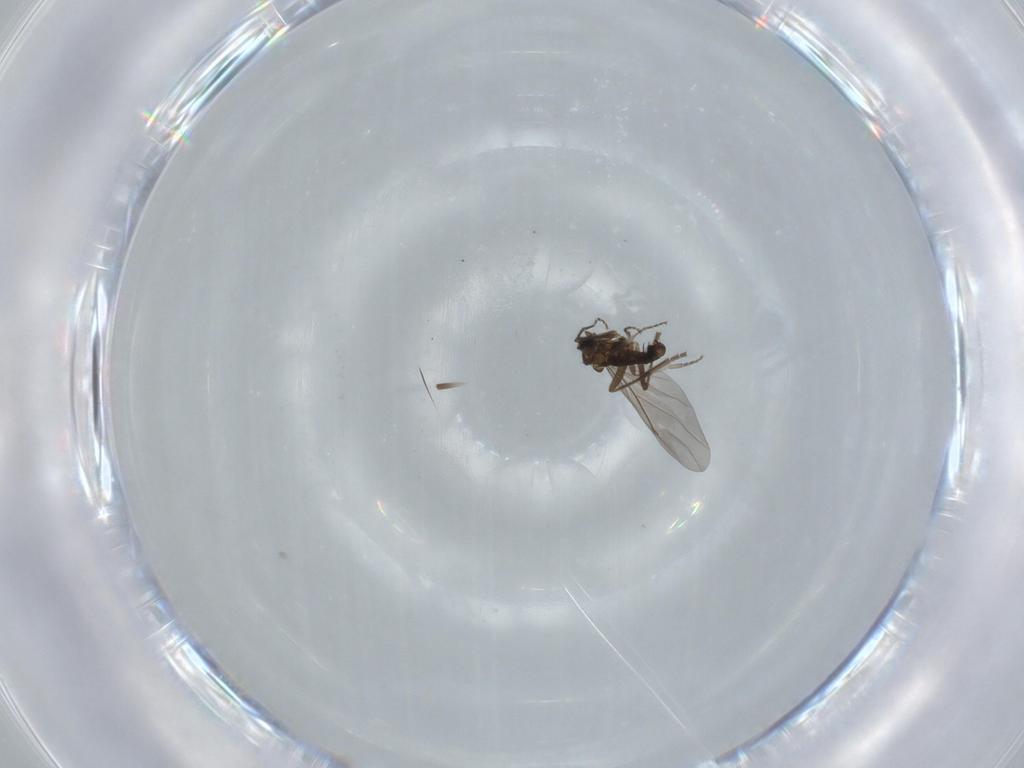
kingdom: Animalia
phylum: Arthropoda
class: Insecta
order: Diptera
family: Phoridae
